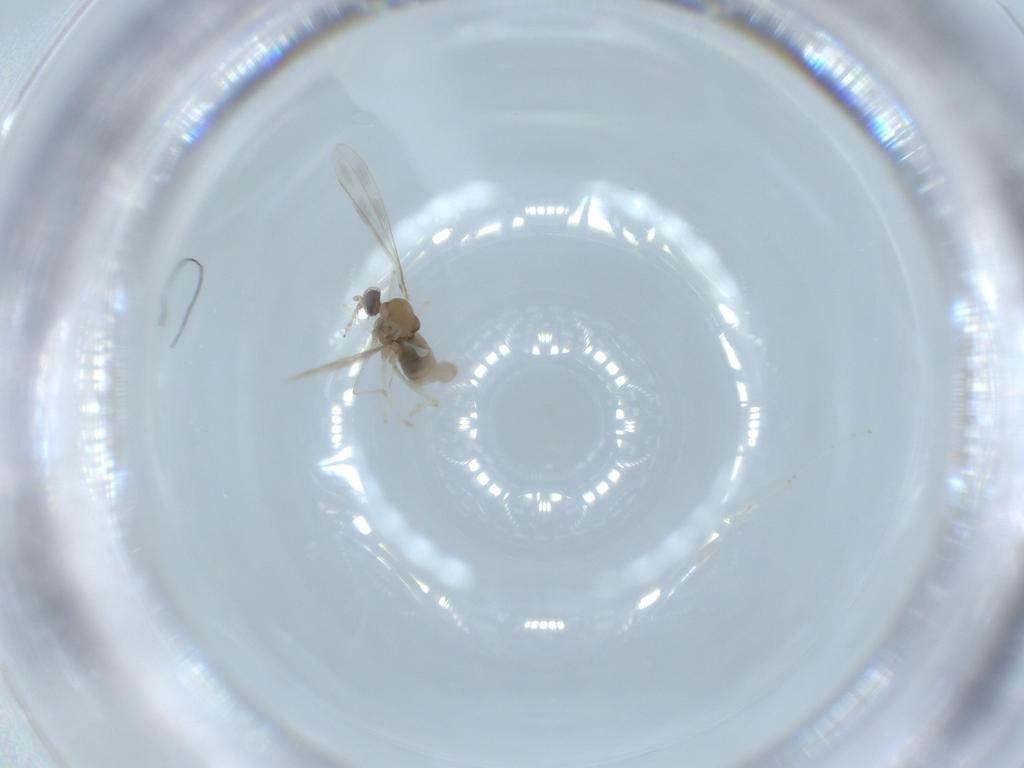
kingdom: Animalia
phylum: Arthropoda
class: Insecta
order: Diptera
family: Cecidomyiidae
